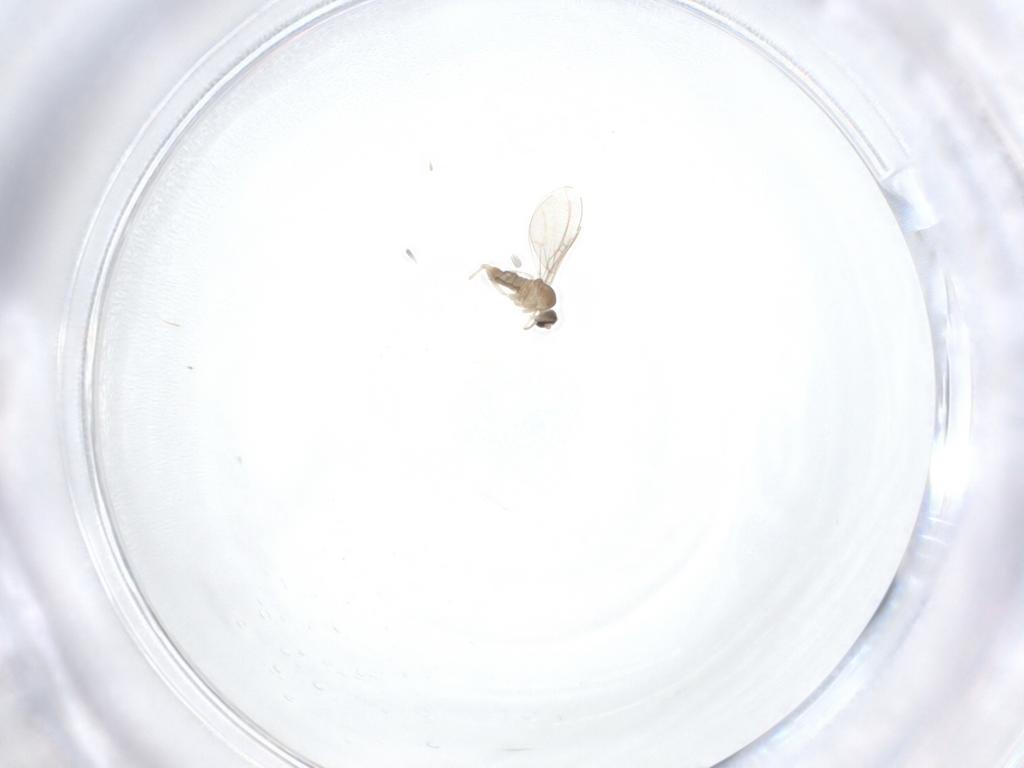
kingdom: Animalia
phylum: Arthropoda
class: Insecta
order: Diptera
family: Cecidomyiidae
